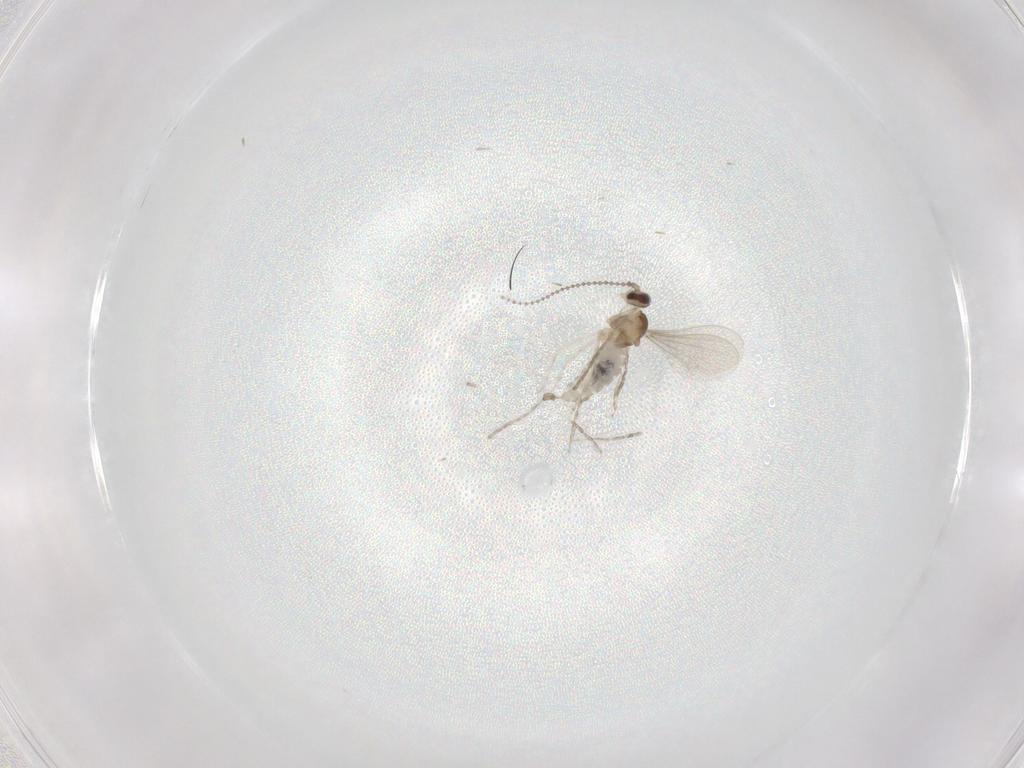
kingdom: Animalia
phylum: Arthropoda
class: Insecta
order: Diptera
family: Cecidomyiidae
